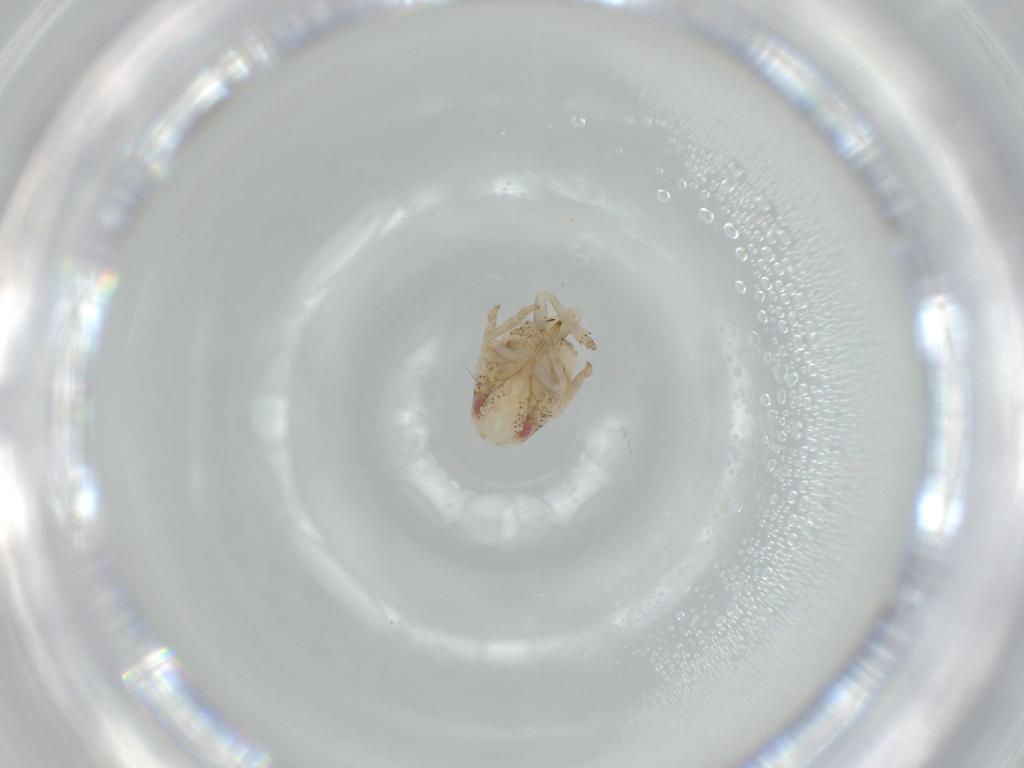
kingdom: Animalia
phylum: Arthropoda
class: Insecta
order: Hemiptera
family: Acanaloniidae
